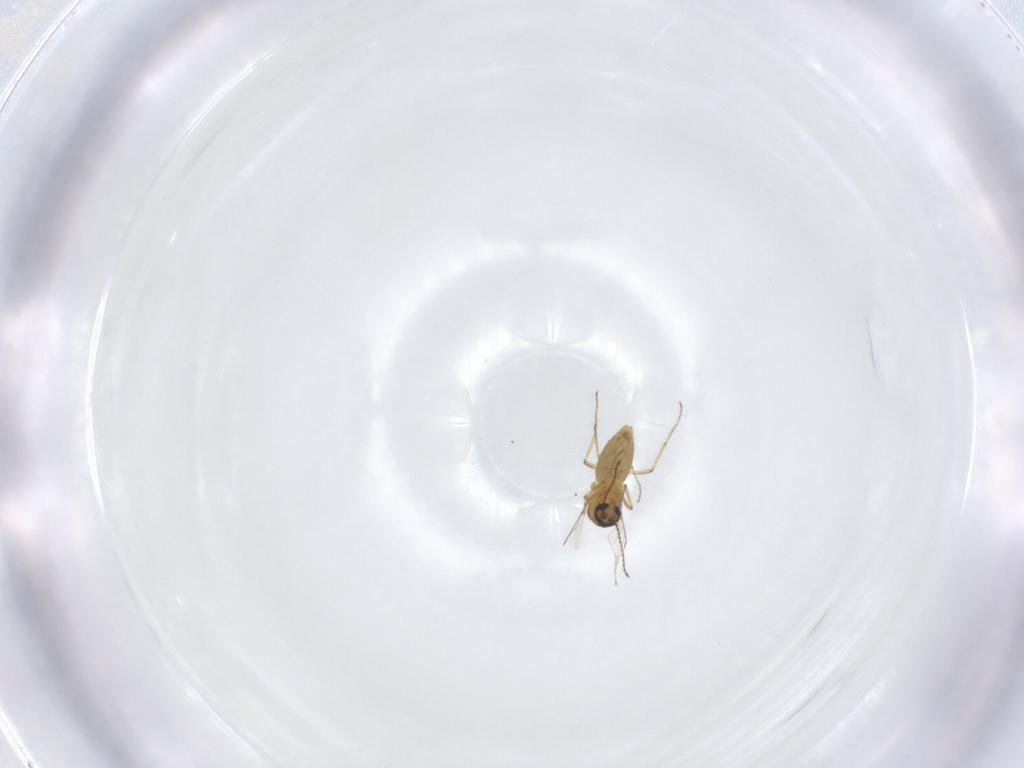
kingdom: Animalia
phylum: Arthropoda
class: Insecta
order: Diptera
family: Ceratopogonidae
